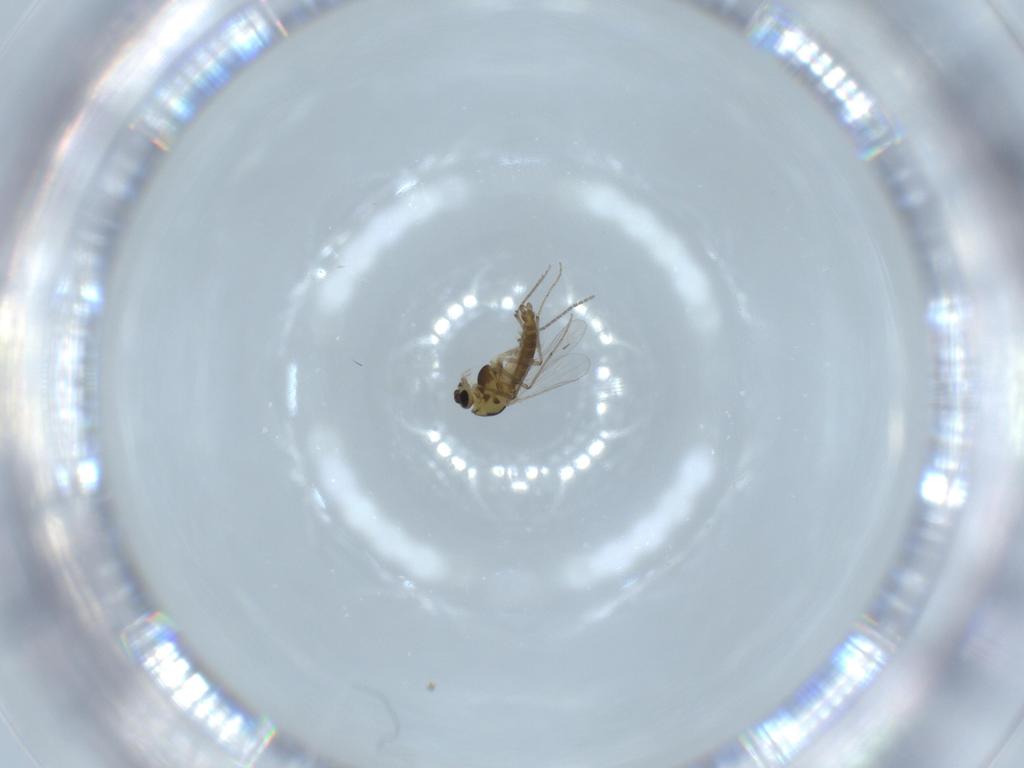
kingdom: Animalia
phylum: Arthropoda
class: Insecta
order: Diptera
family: Chironomidae
